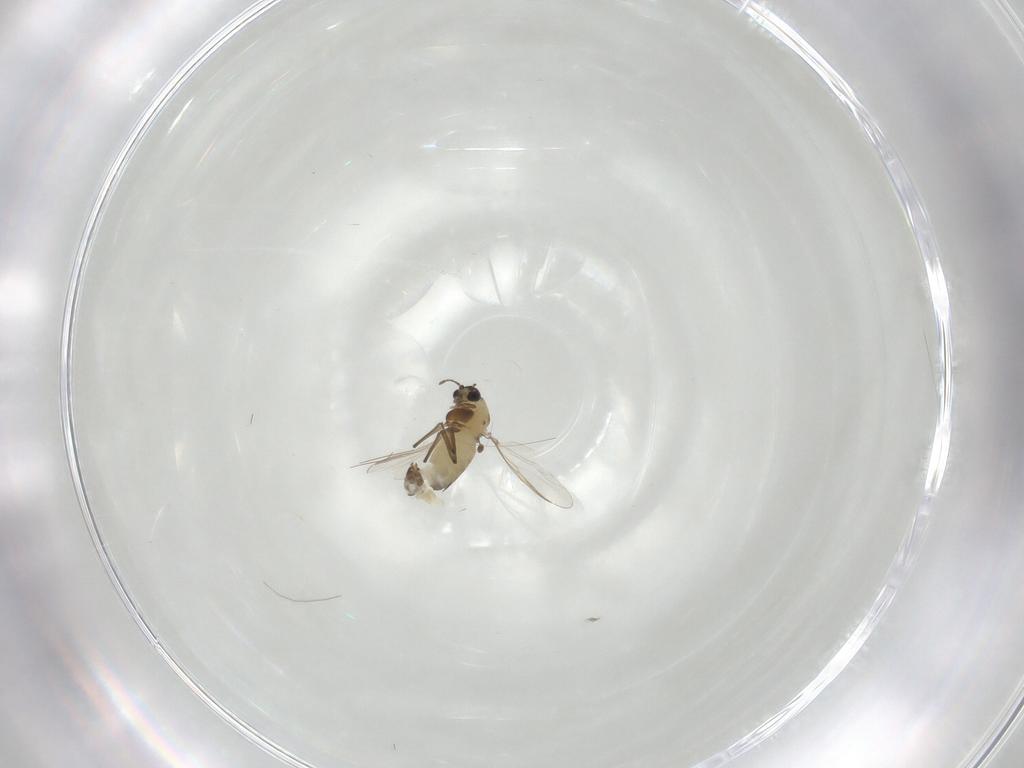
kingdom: Animalia
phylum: Arthropoda
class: Insecta
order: Diptera
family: Chironomidae
